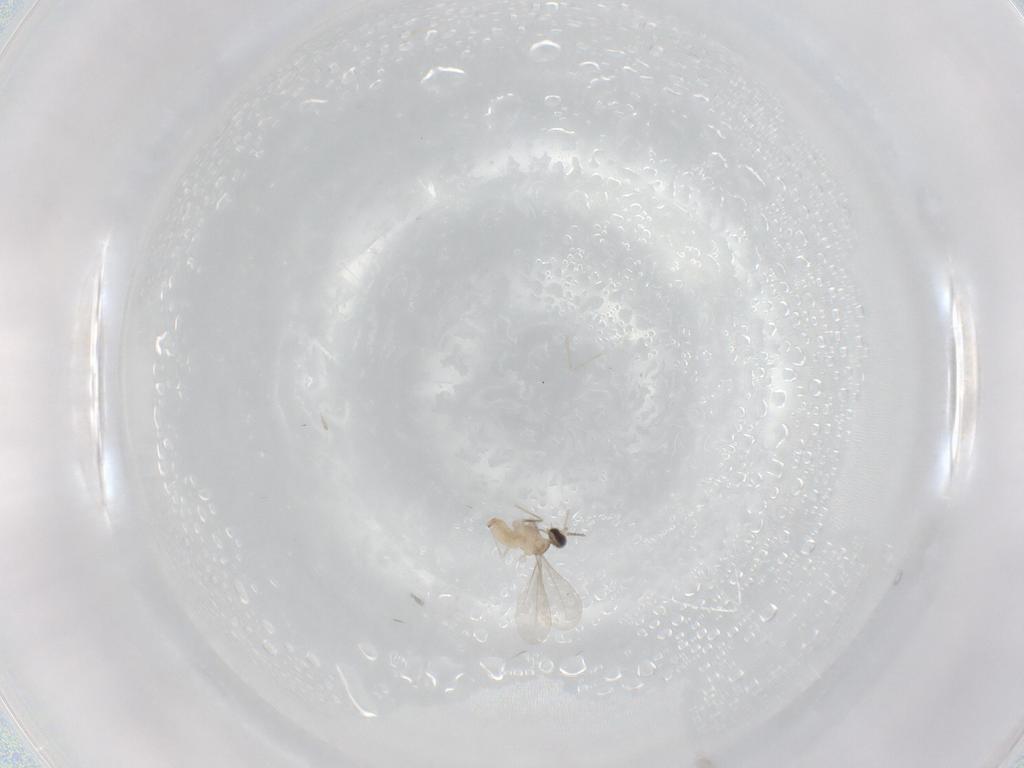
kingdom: Animalia
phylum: Arthropoda
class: Insecta
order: Diptera
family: Cecidomyiidae
